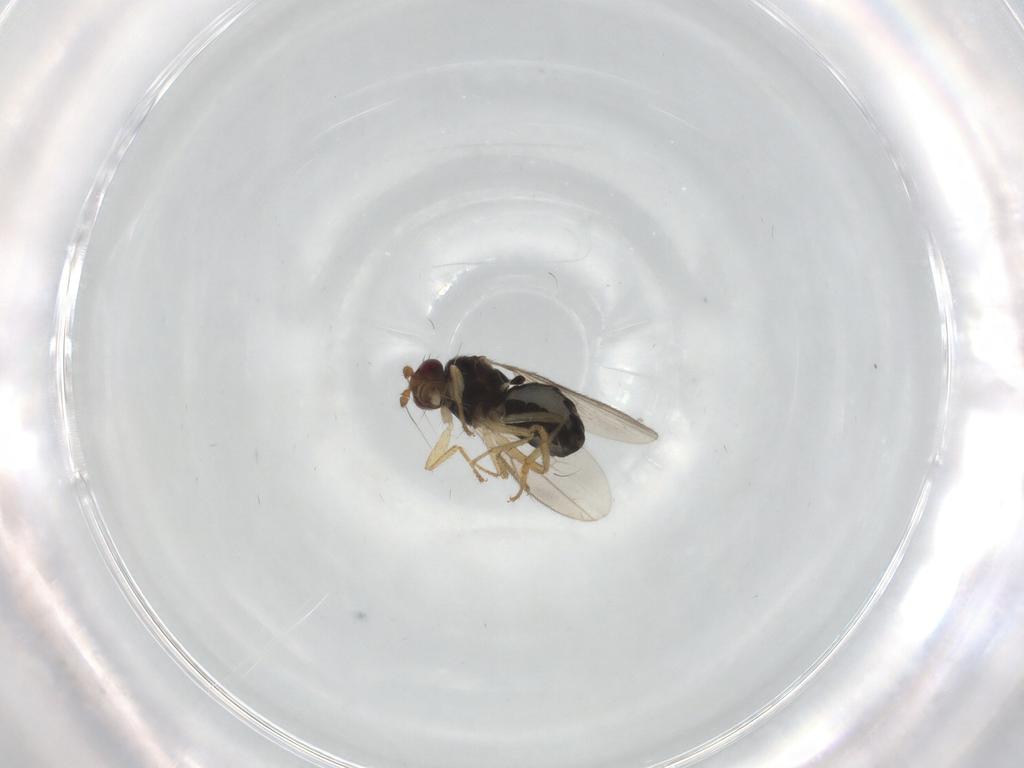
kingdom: Animalia
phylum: Arthropoda
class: Insecta
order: Diptera
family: Sphaeroceridae
